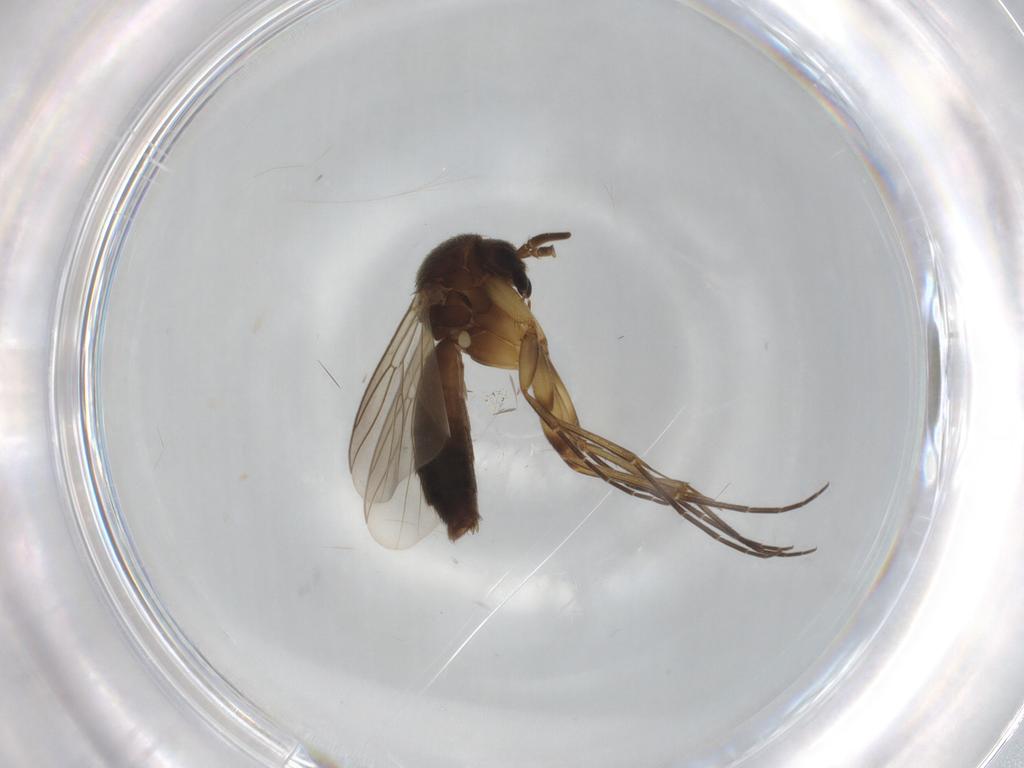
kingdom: Animalia
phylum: Arthropoda
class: Insecta
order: Diptera
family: Mycetophilidae
